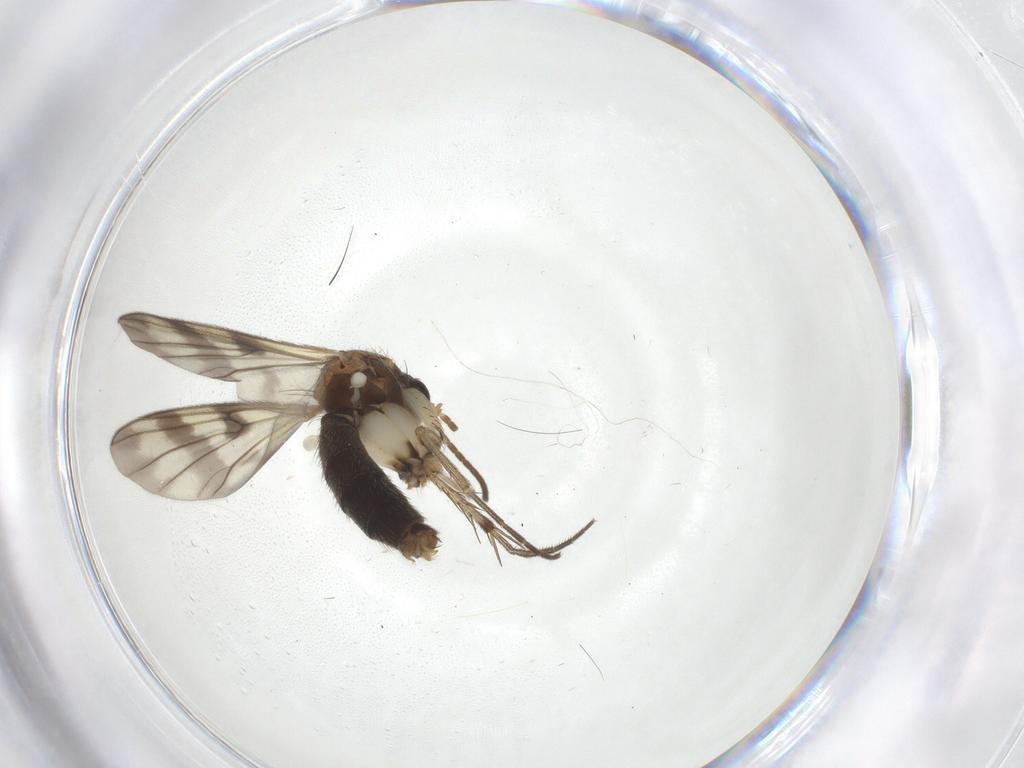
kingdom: Animalia
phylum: Arthropoda
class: Insecta
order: Diptera
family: Mycetophilidae
